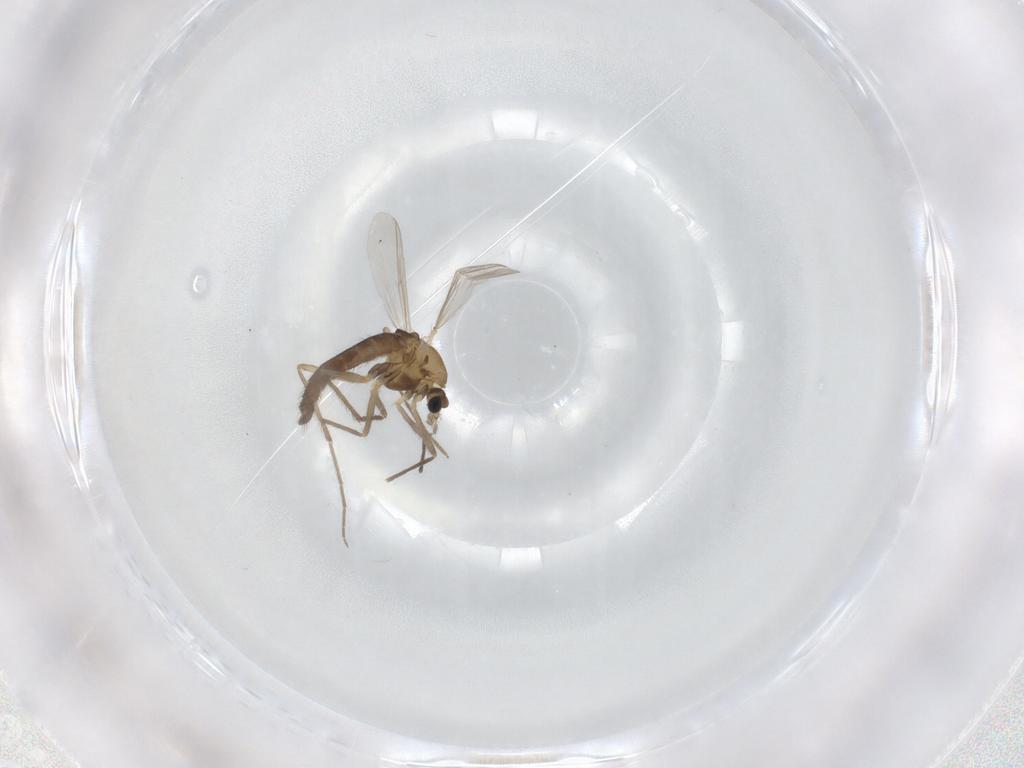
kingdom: Animalia
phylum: Arthropoda
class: Insecta
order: Diptera
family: Chironomidae
